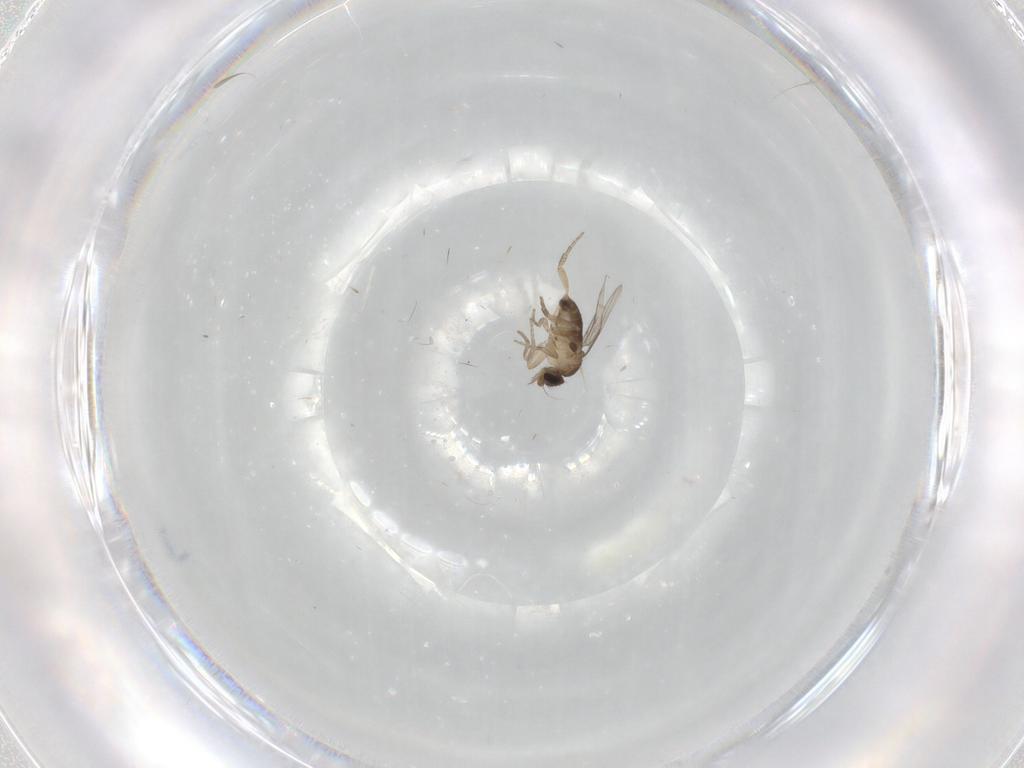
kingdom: Animalia
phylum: Arthropoda
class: Insecta
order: Diptera
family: Phoridae
